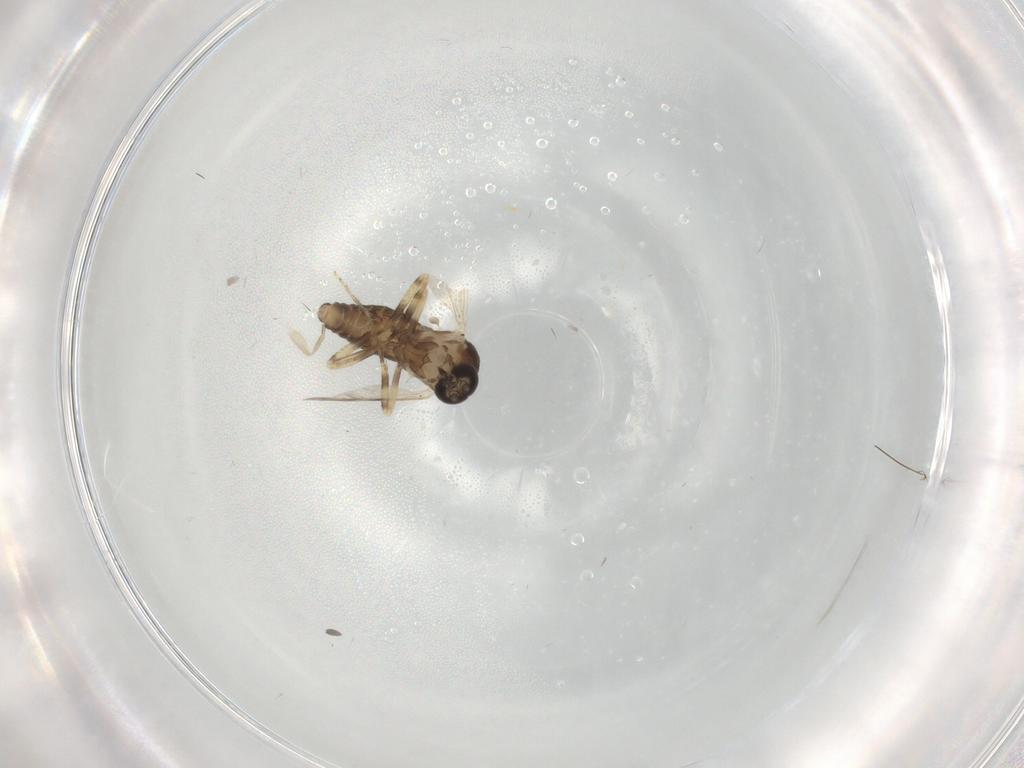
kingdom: Animalia
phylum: Arthropoda
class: Insecta
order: Diptera
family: Ceratopogonidae
